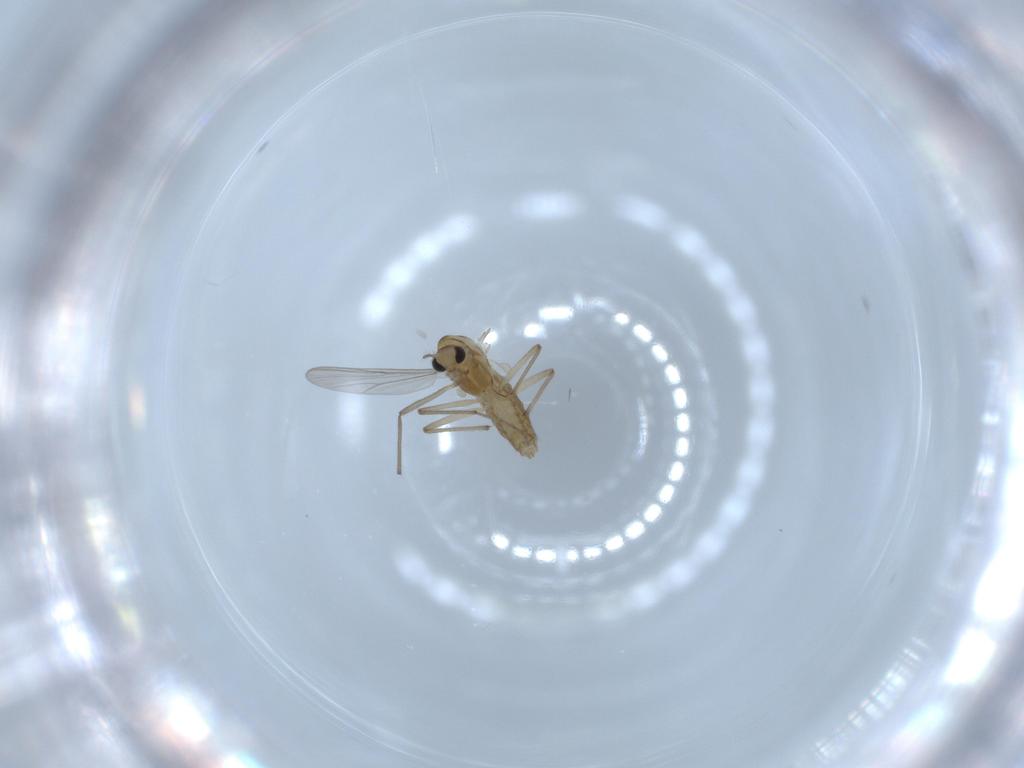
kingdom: Animalia
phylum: Arthropoda
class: Insecta
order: Diptera
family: Chironomidae
